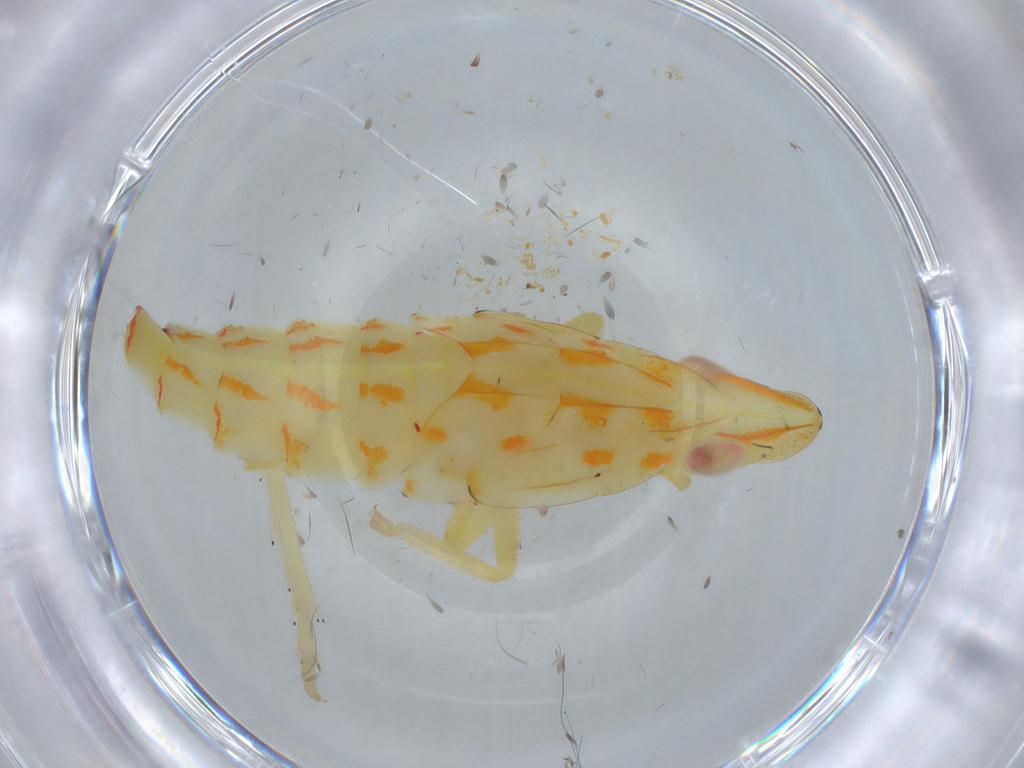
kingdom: Animalia
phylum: Arthropoda
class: Insecta
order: Hemiptera
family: Tropiduchidae
